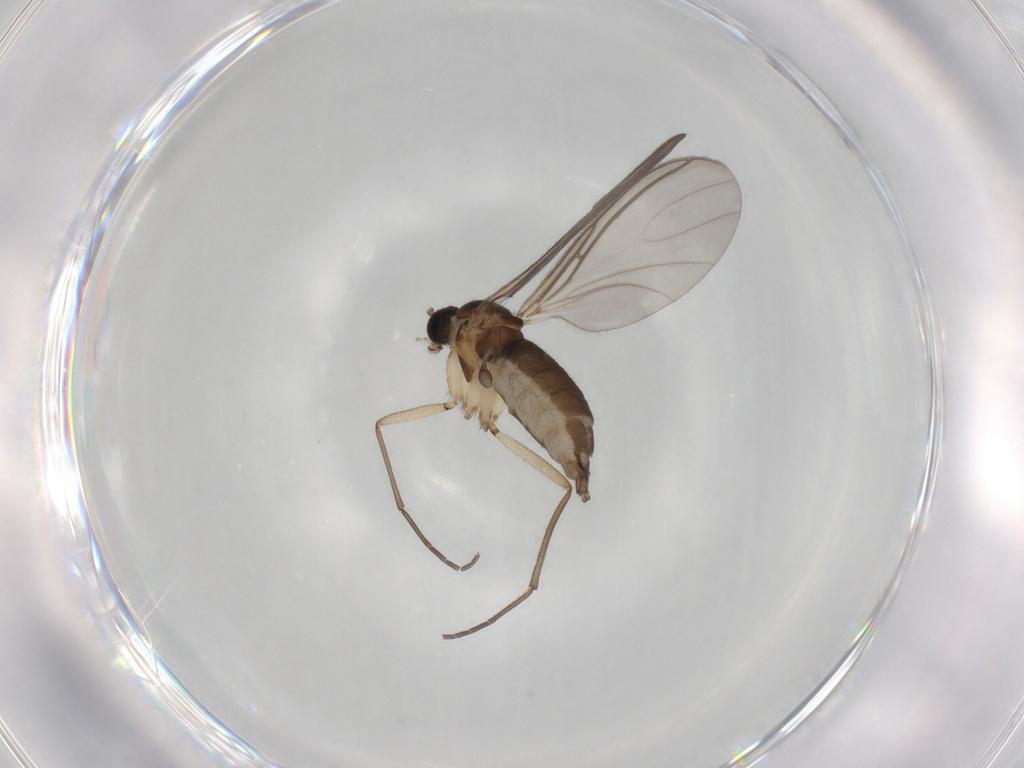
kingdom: Animalia
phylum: Arthropoda
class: Insecta
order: Diptera
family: Sciaridae
